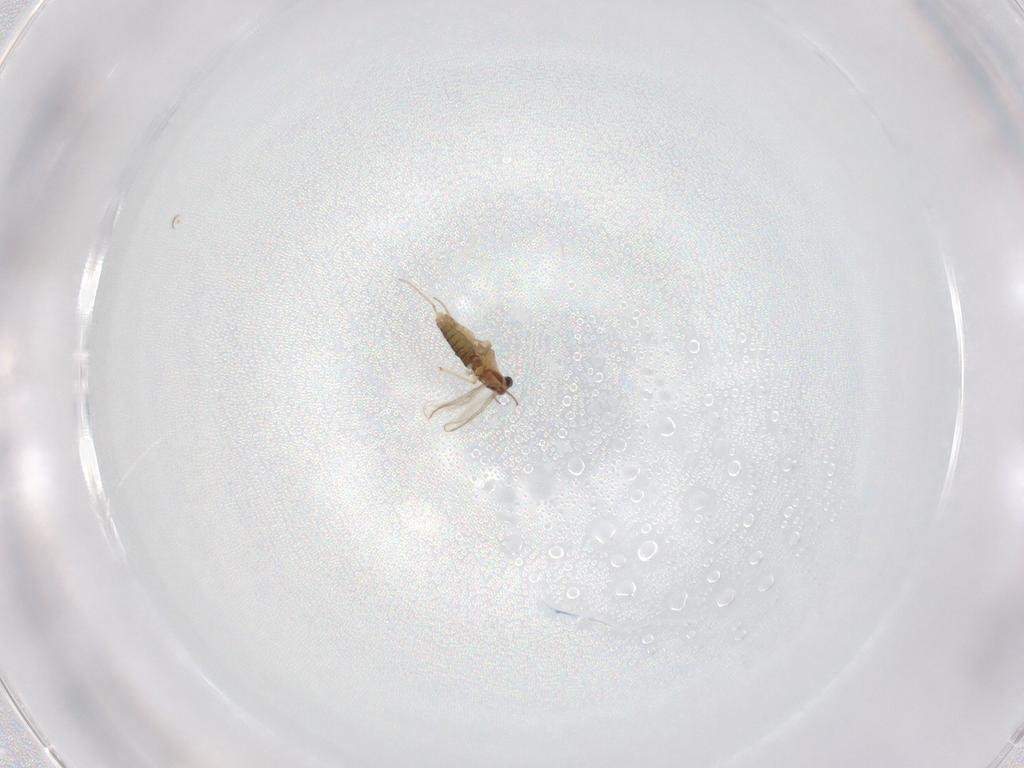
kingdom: Animalia
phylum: Arthropoda
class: Insecta
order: Diptera
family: Chironomidae
